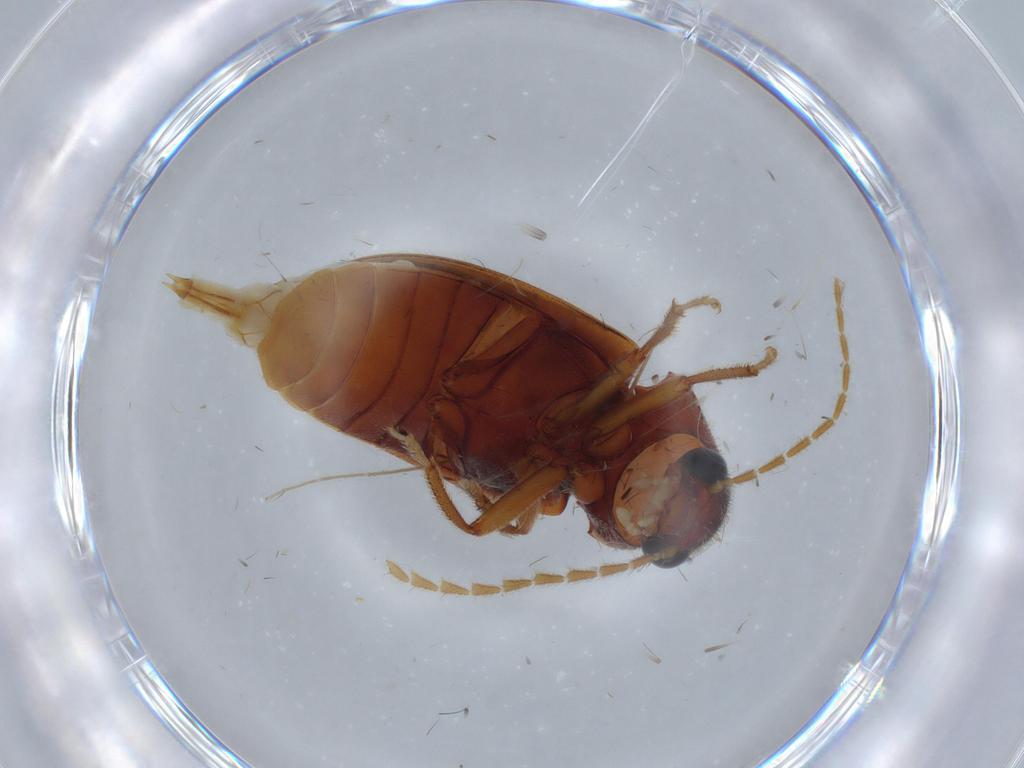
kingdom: Animalia
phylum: Arthropoda
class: Insecta
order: Coleoptera
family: Ptilodactylidae
